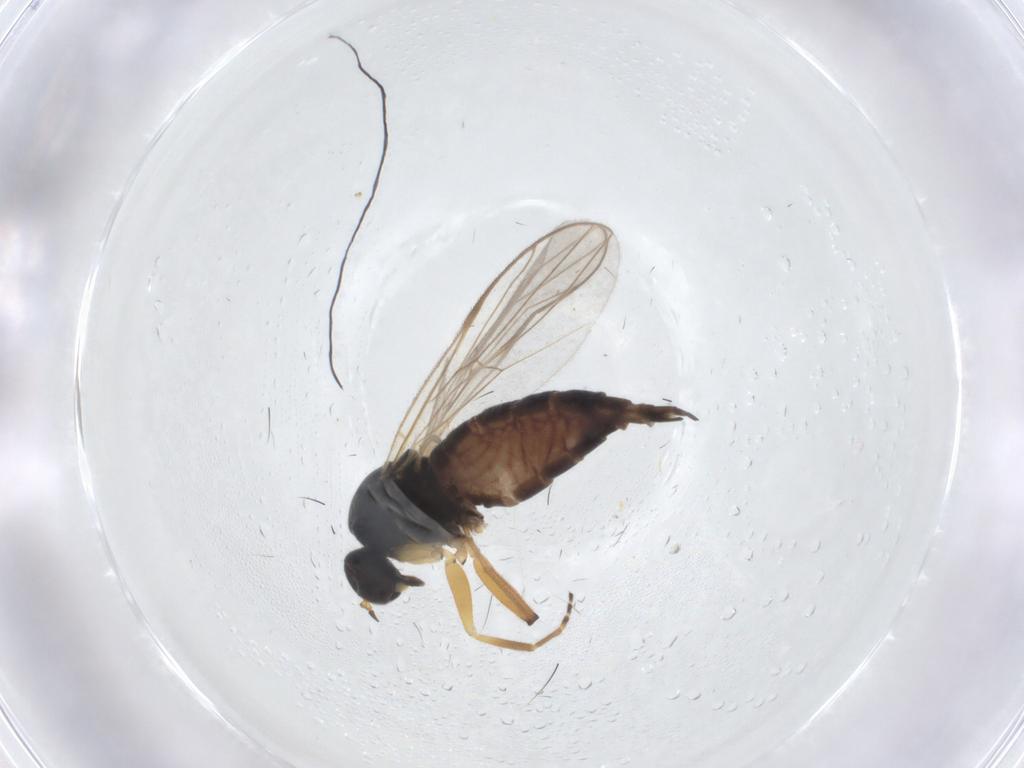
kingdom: Animalia
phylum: Arthropoda
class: Insecta
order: Diptera
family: Hybotidae
